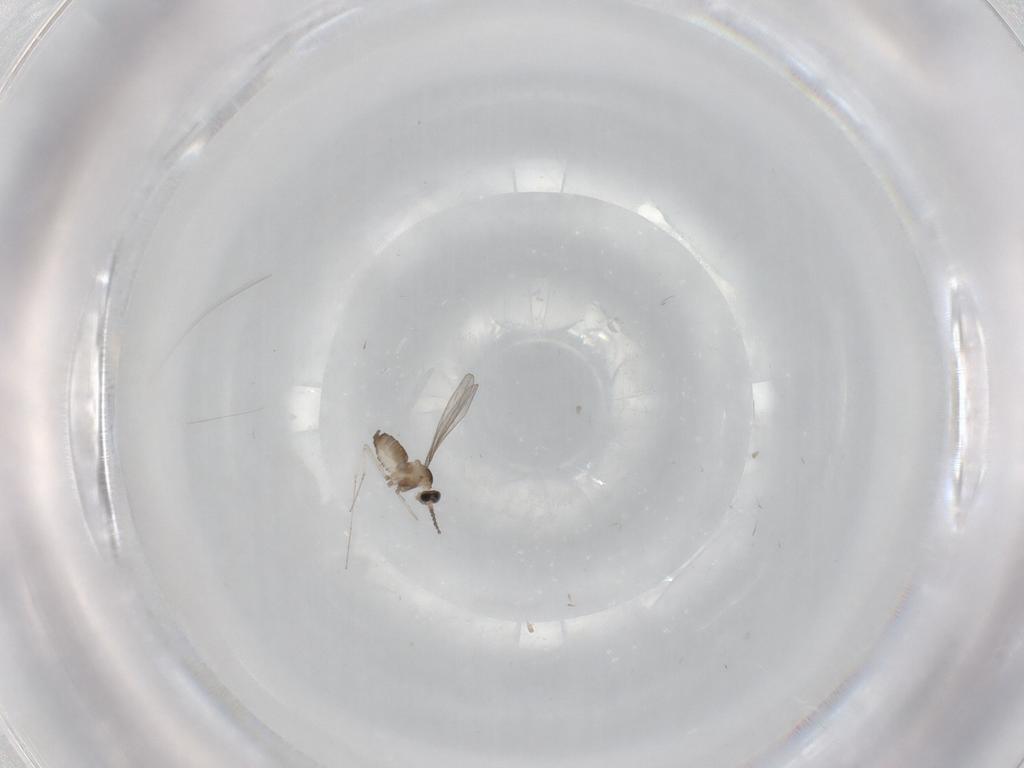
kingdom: Animalia
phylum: Arthropoda
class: Insecta
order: Diptera
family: Cecidomyiidae
